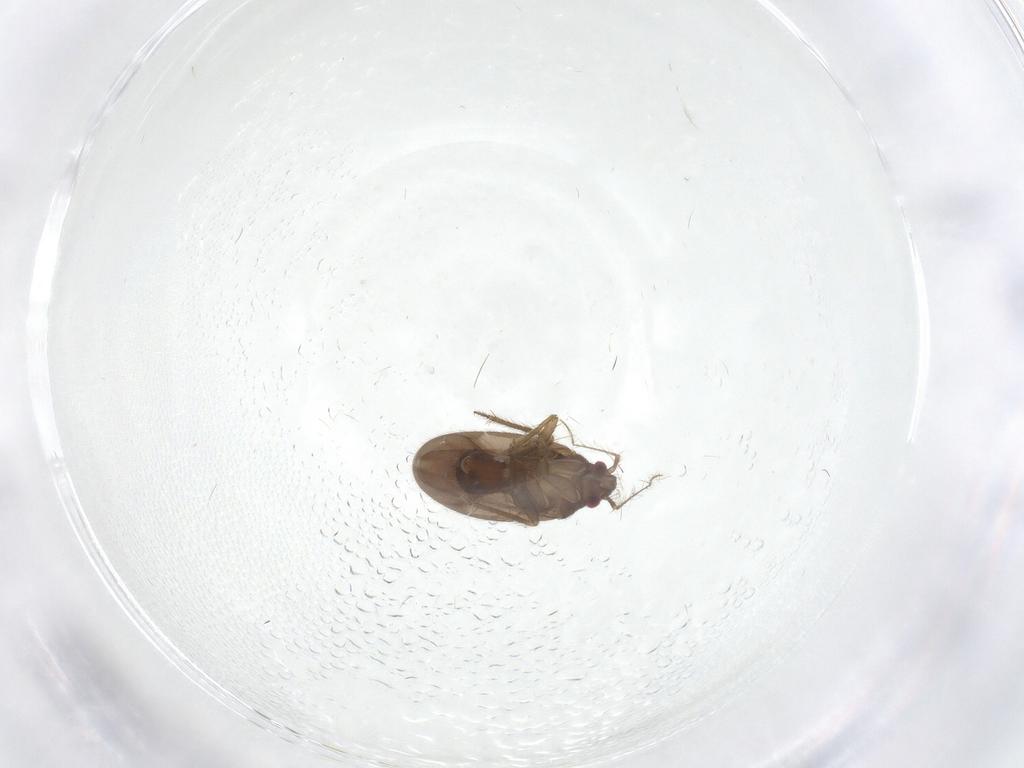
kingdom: Animalia
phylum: Arthropoda
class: Insecta
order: Hemiptera
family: Ceratocombidae
